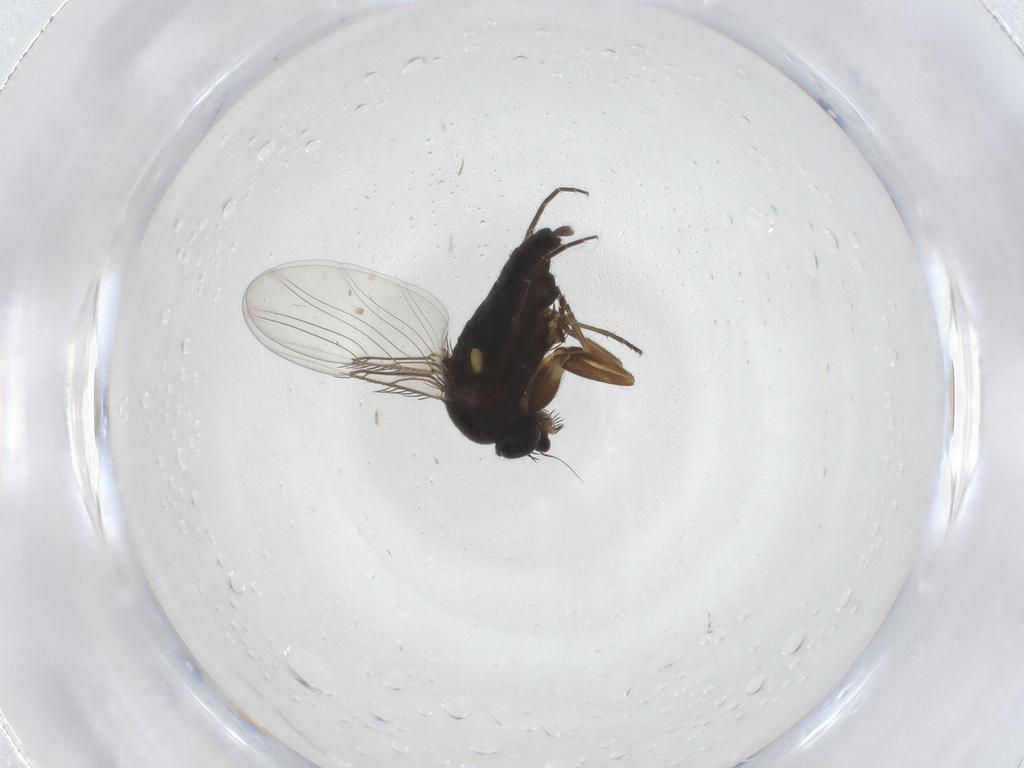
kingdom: Animalia
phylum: Arthropoda
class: Insecta
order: Diptera
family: Phoridae
